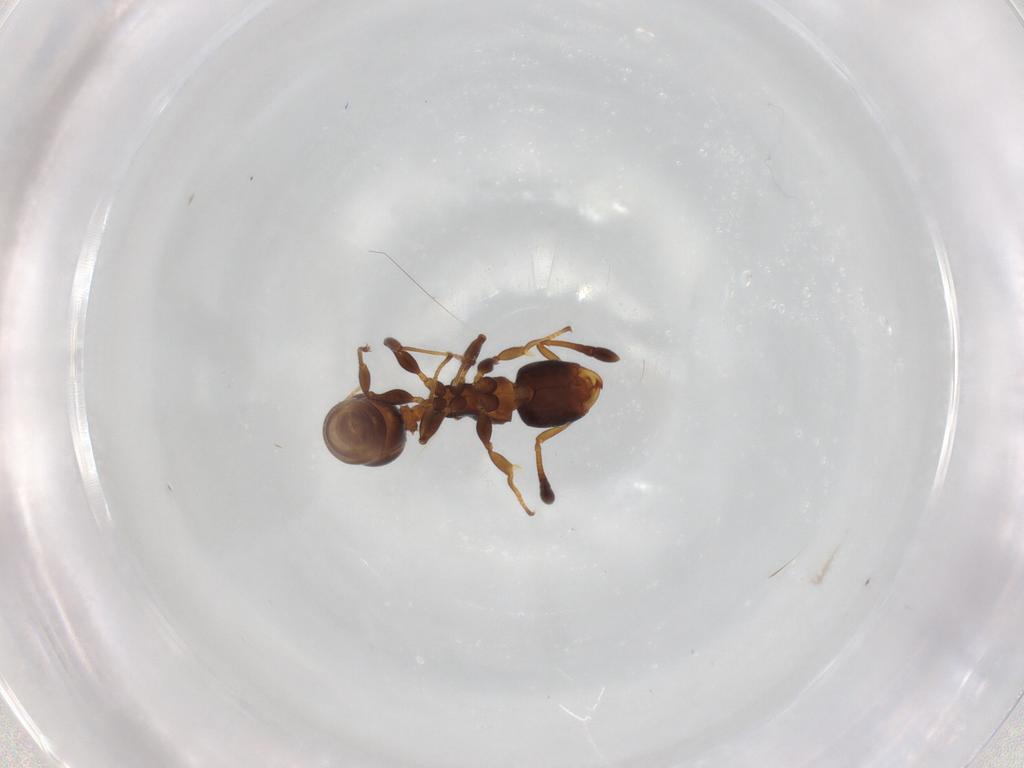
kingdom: Animalia
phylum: Arthropoda
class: Insecta
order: Hymenoptera
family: Formicidae
